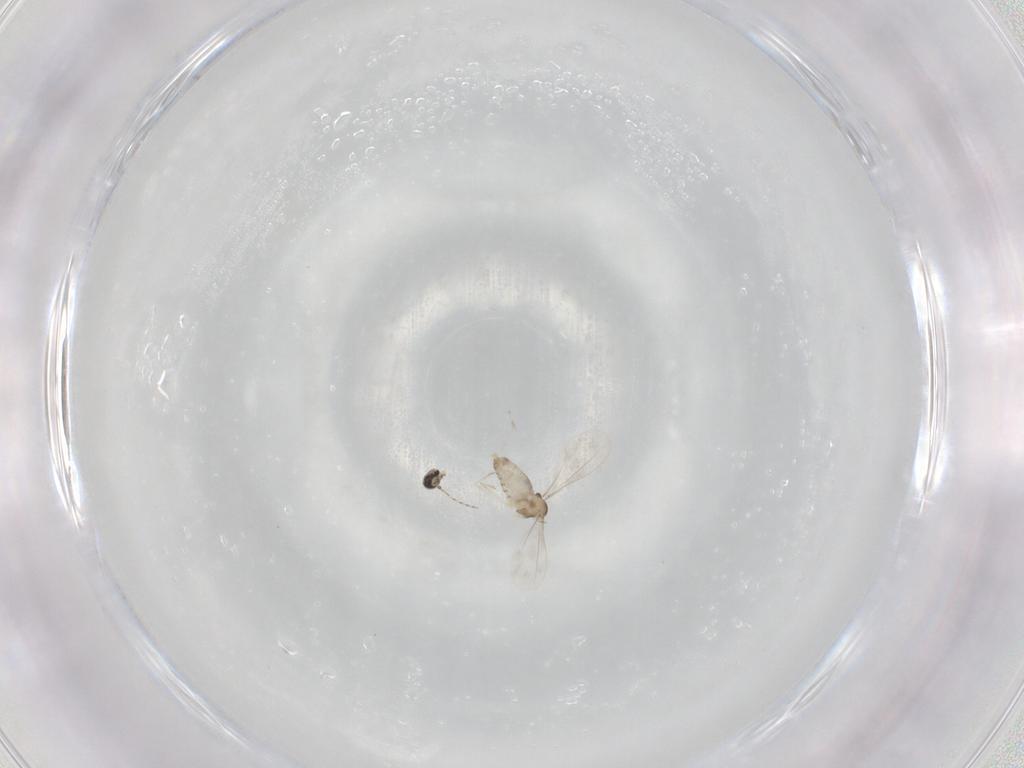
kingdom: Animalia
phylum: Arthropoda
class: Insecta
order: Diptera
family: Cecidomyiidae
